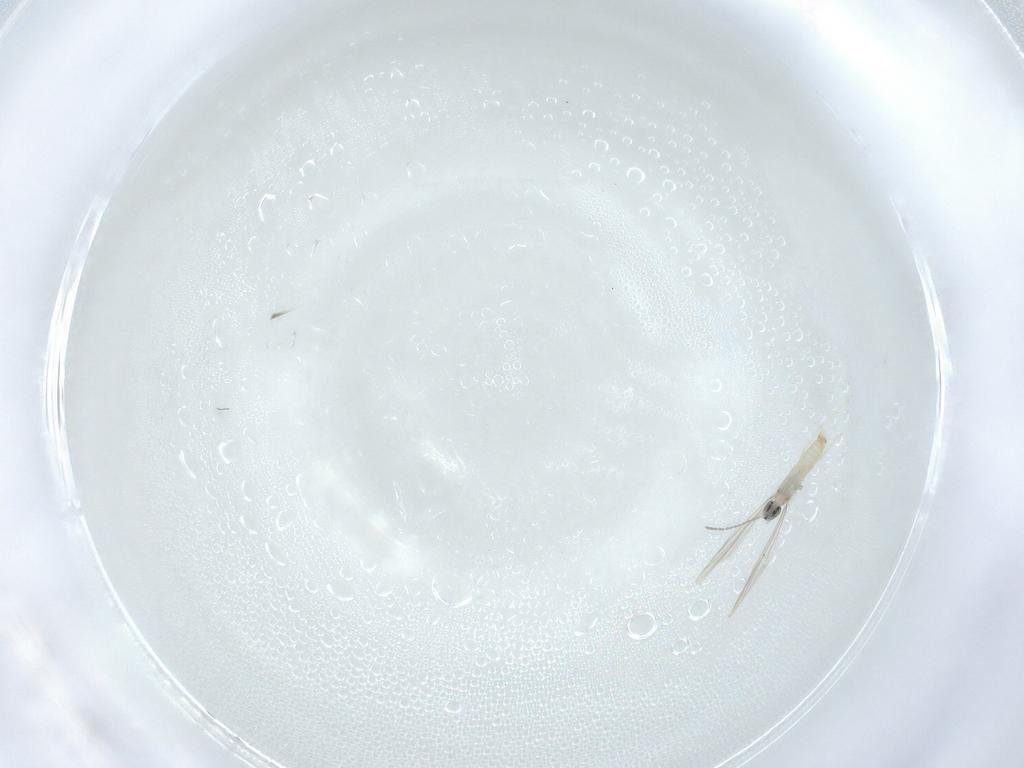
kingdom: Animalia
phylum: Arthropoda
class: Insecta
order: Diptera
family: Cecidomyiidae
